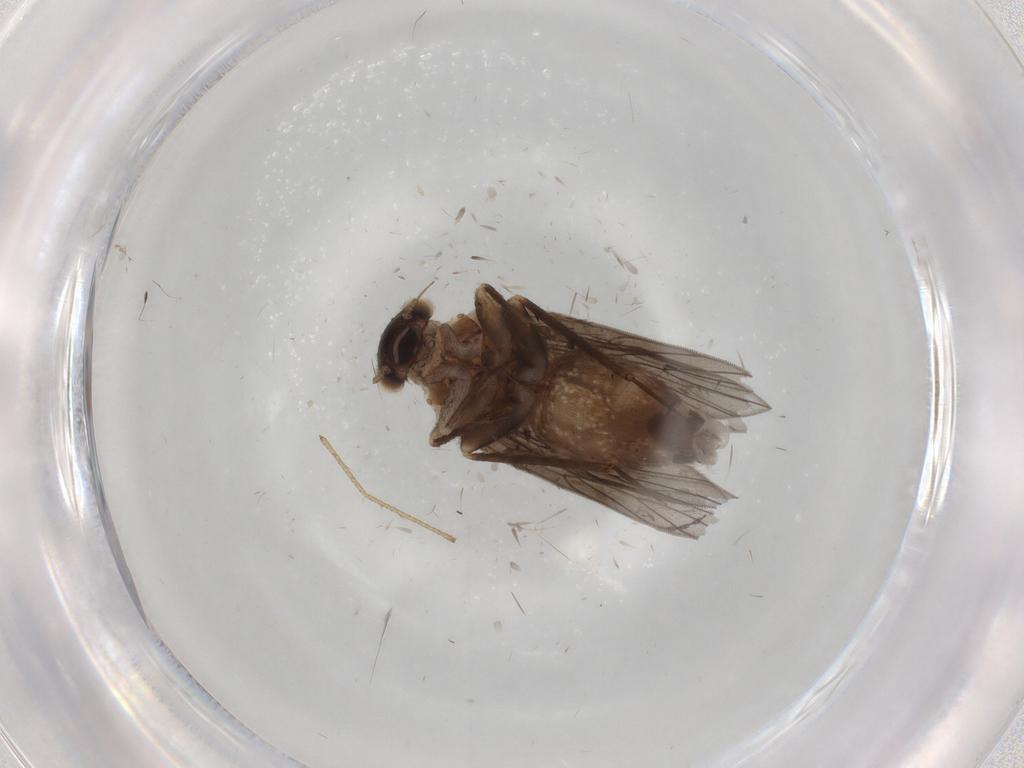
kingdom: Animalia
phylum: Arthropoda
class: Insecta
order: Psocodea
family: Lepidopsocidae
